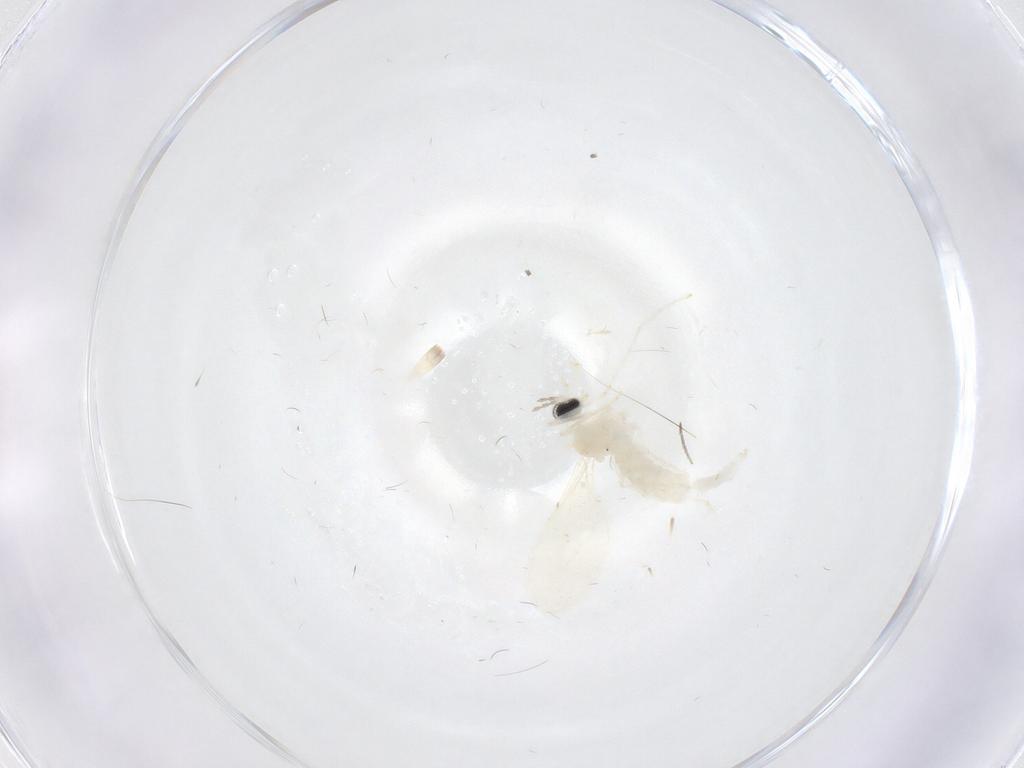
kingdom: Animalia
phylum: Arthropoda
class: Insecta
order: Diptera
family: Cecidomyiidae
